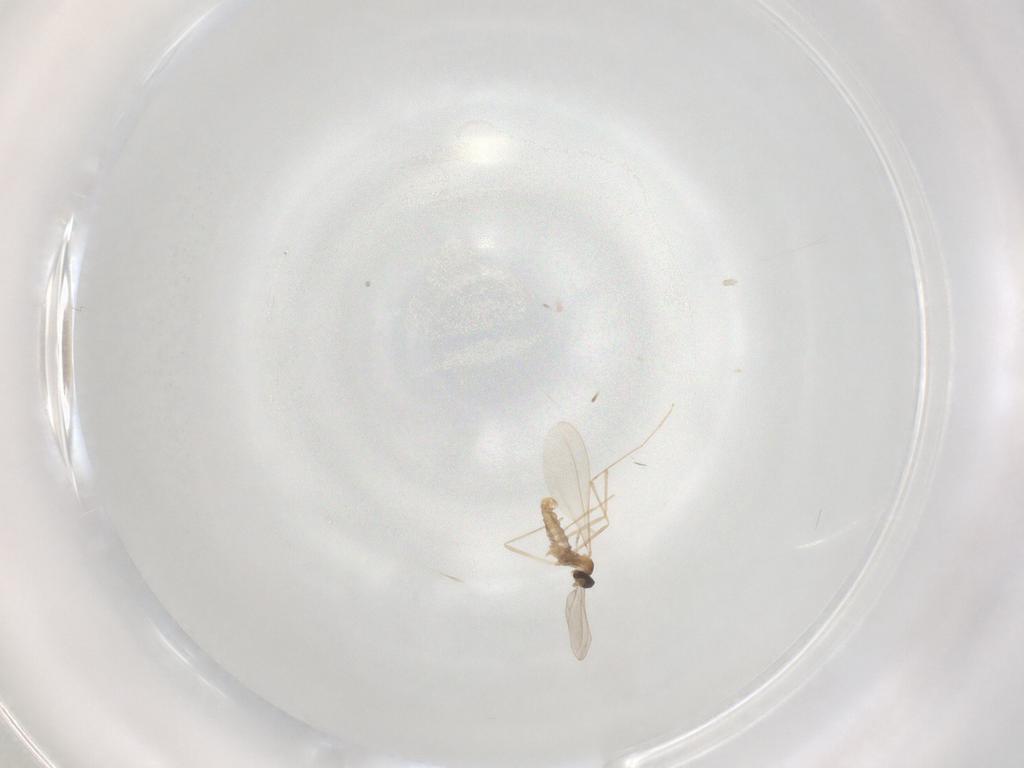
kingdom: Animalia
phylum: Arthropoda
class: Insecta
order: Diptera
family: Cecidomyiidae
